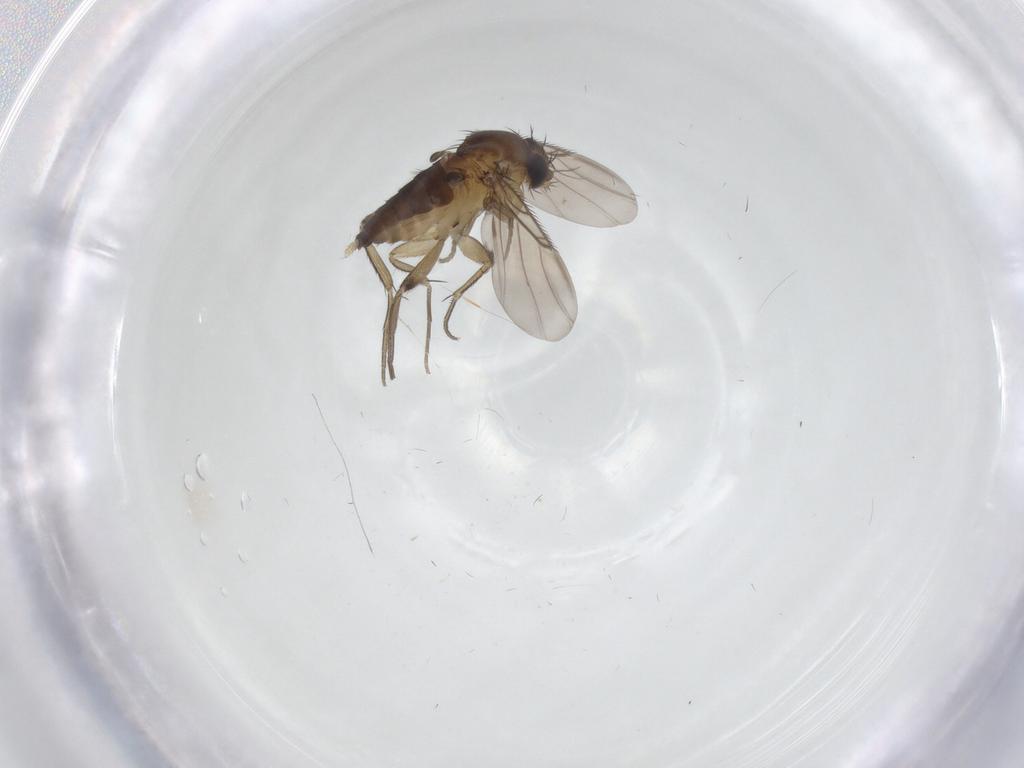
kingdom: Animalia
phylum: Arthropoda
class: Insecta
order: Diptera
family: Phoridae
